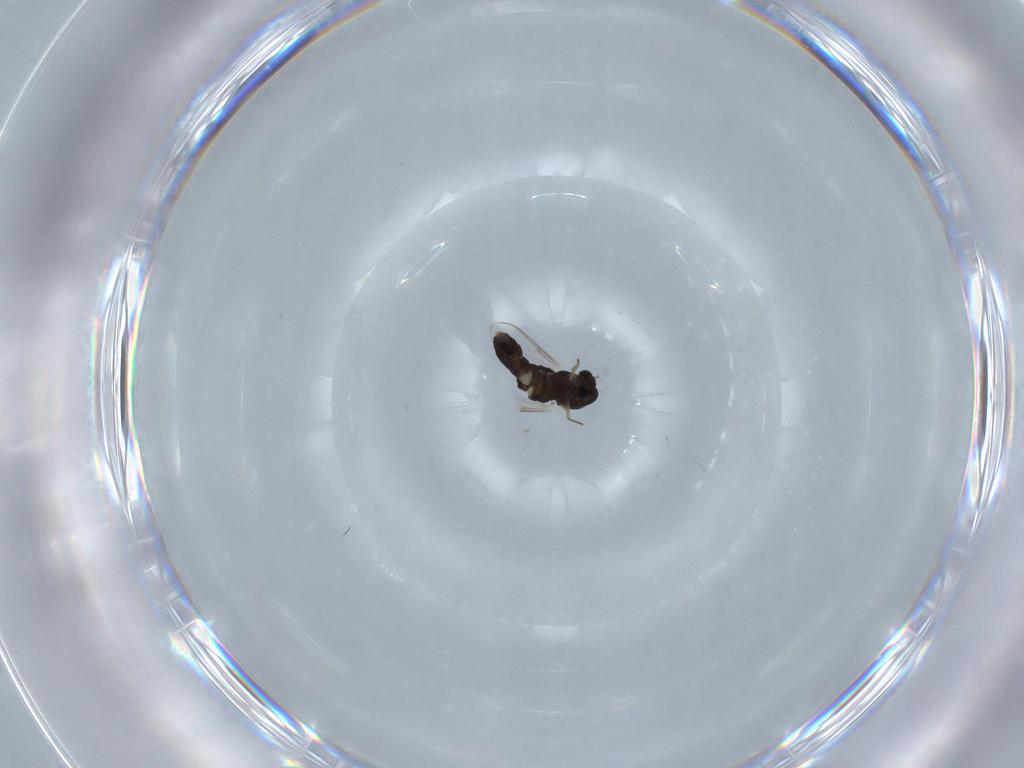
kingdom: Animalia
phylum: Arthropoda
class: Insecta
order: Diptera
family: Chironomidae
